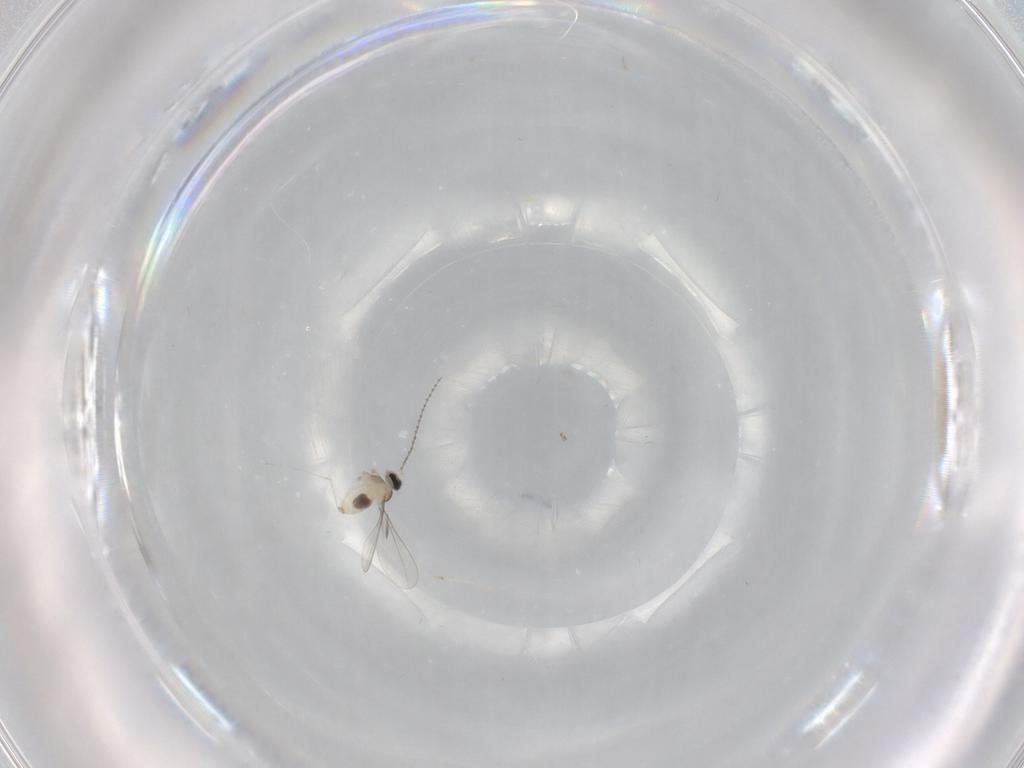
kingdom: Animalia
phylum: Arthropoda
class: Insecta
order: Diptera
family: Cecidomyiidae
